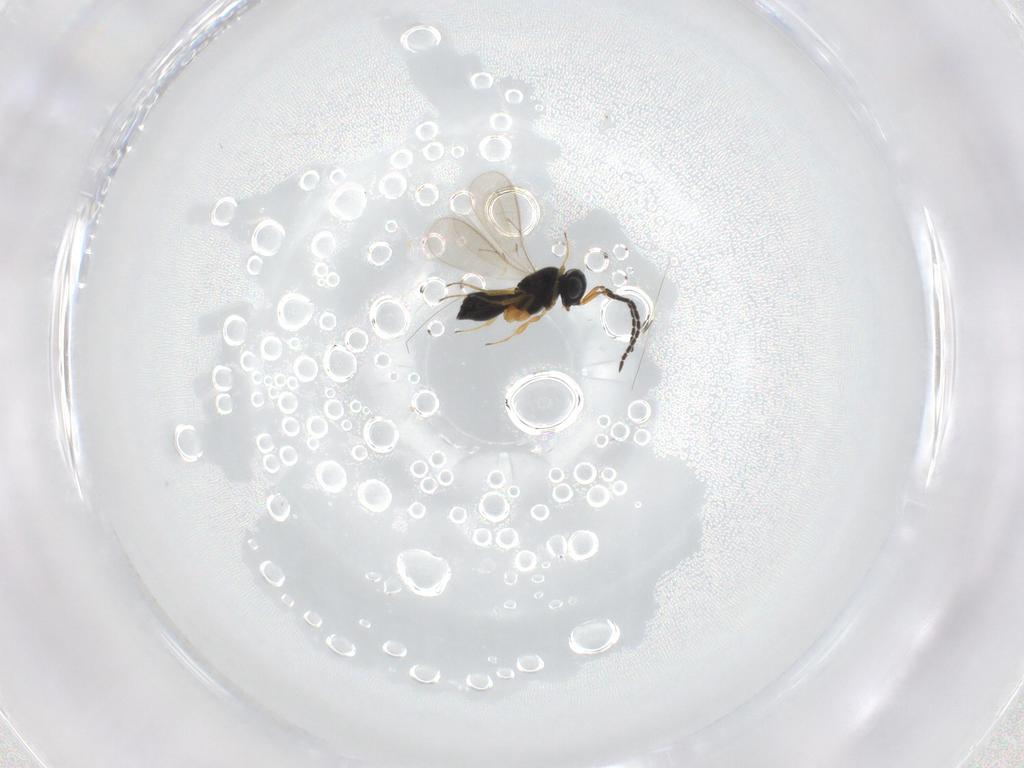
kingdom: Animalia
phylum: Arthropoda
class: Insecta
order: Hymenoptera
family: Scelionidae
